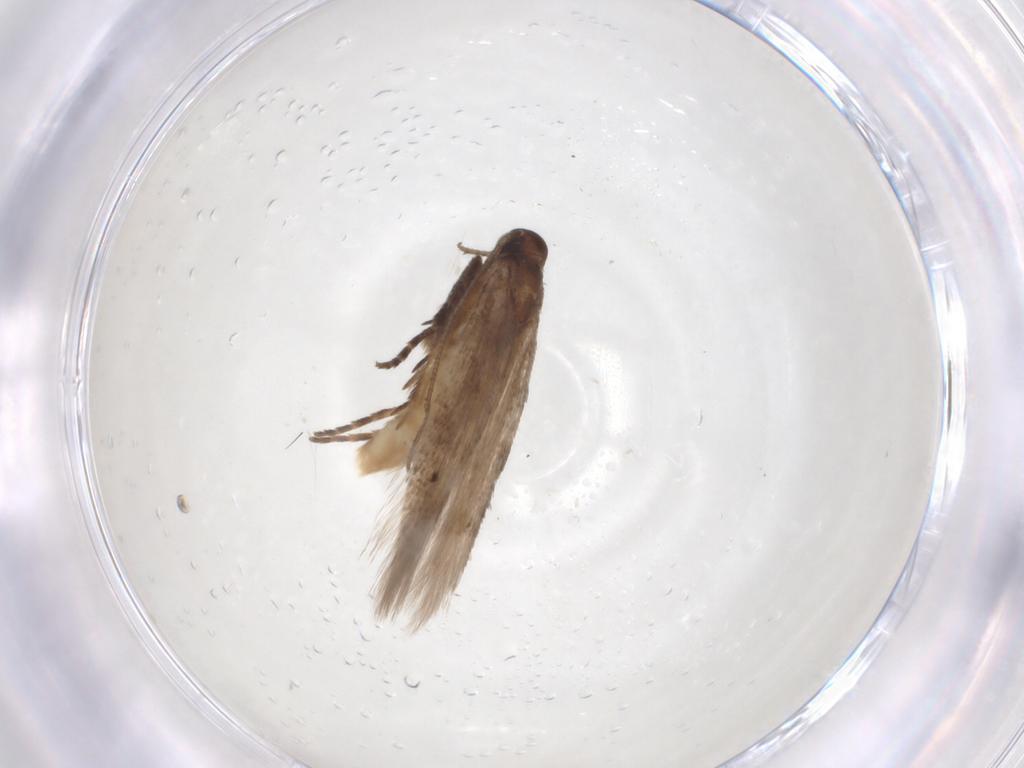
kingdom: Animalia
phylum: Arthropoda
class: Insecta
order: Lepidoptera
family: Gelechiidae
